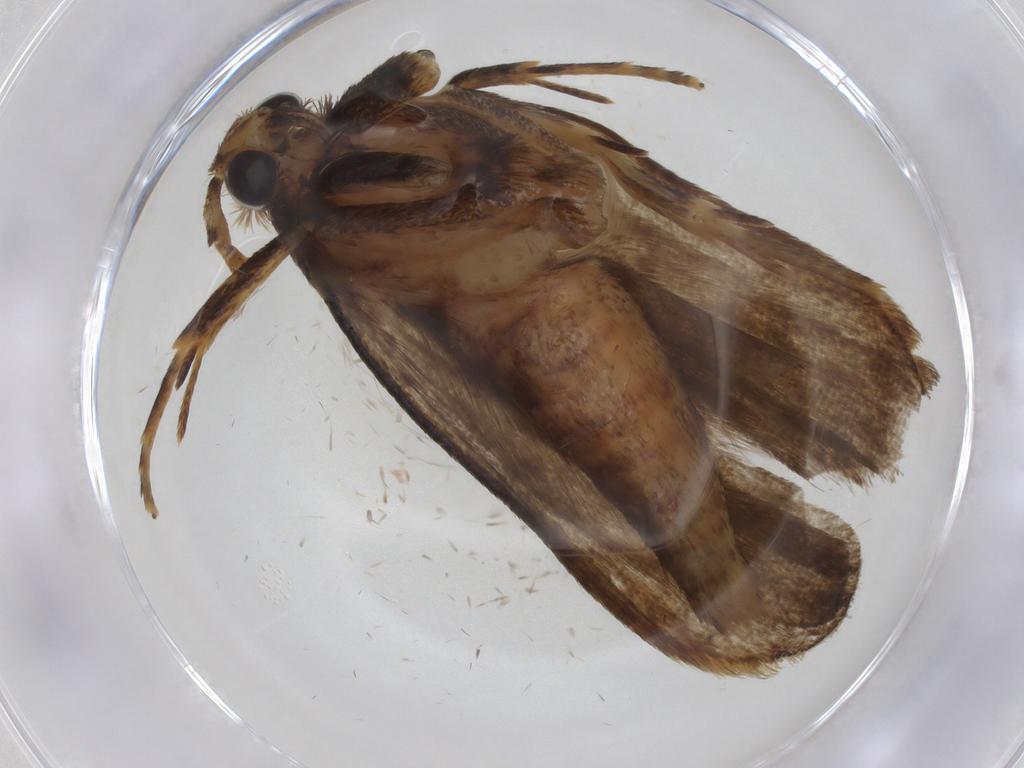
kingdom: Animalia
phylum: Arthropoda
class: Insecta
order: Lepidoptera
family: Autostichidae
